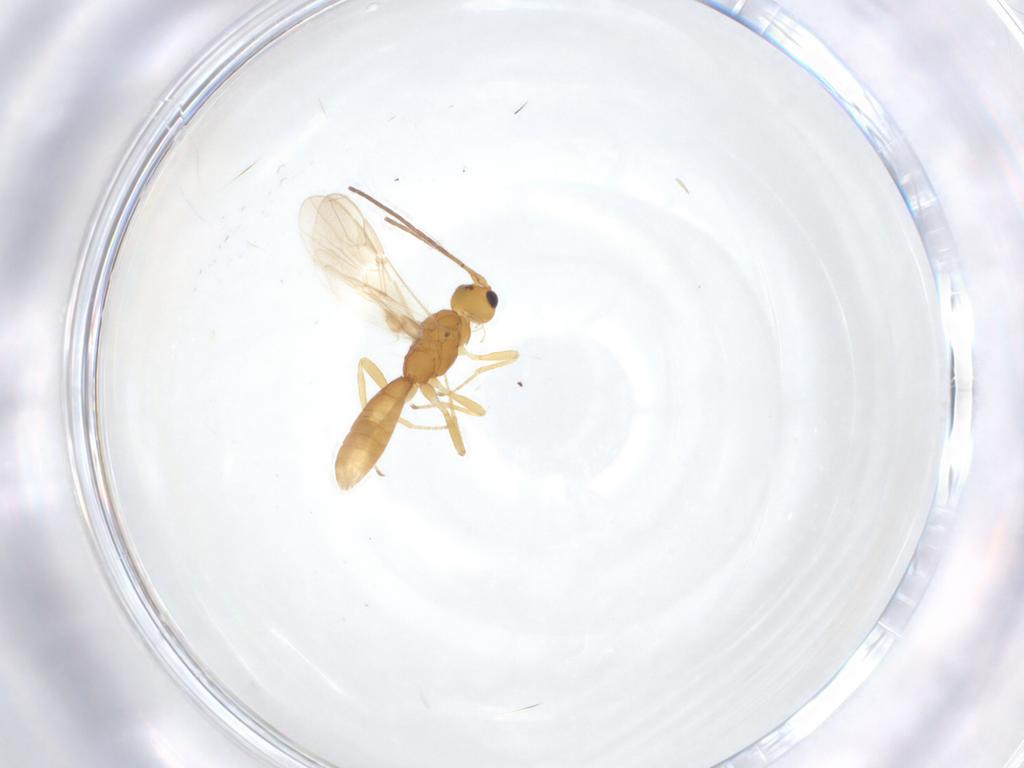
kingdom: Animalia
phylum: Arthropoda
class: Insecta
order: Hymenoptera
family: Braconidae
